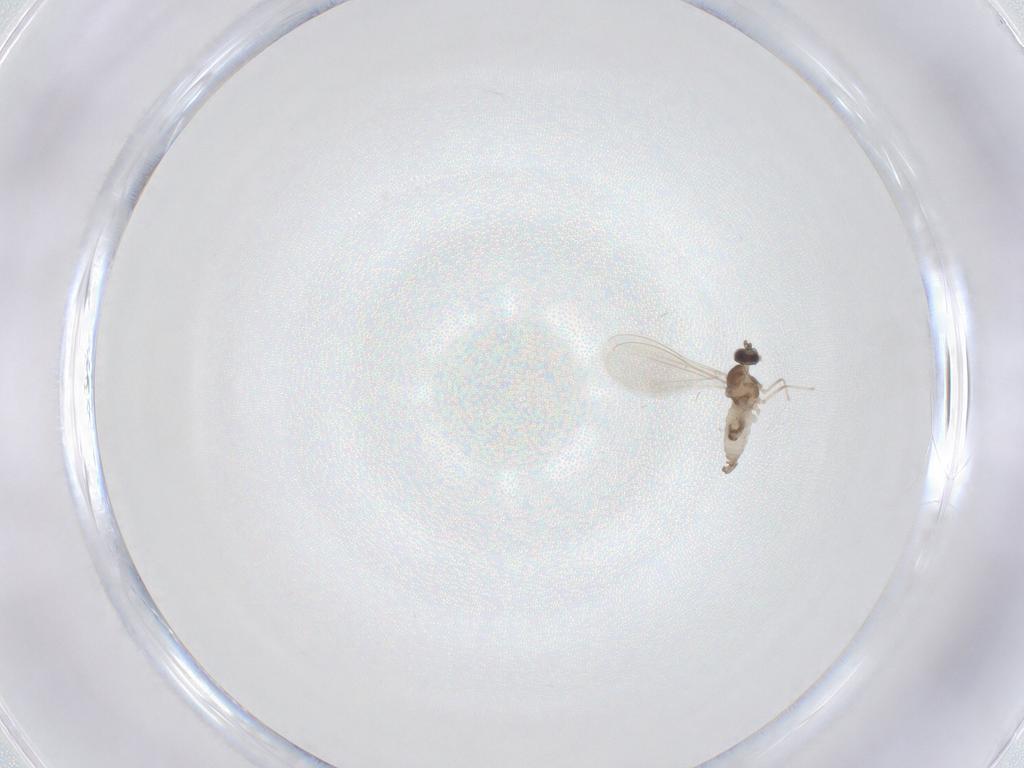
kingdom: Animalia
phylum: Arthropoda
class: Insecta
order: Diptera
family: Cecidomyiidae
